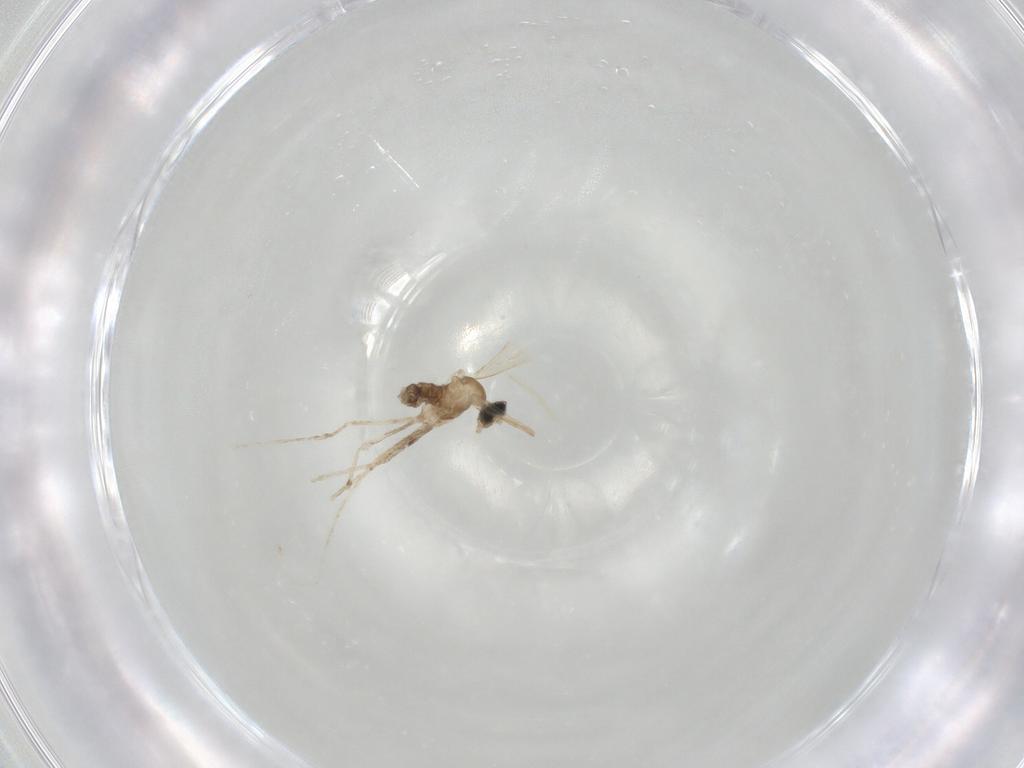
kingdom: Animalia
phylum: Arthropoda
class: Insecta
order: Diptera
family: Cecidomyiidae
